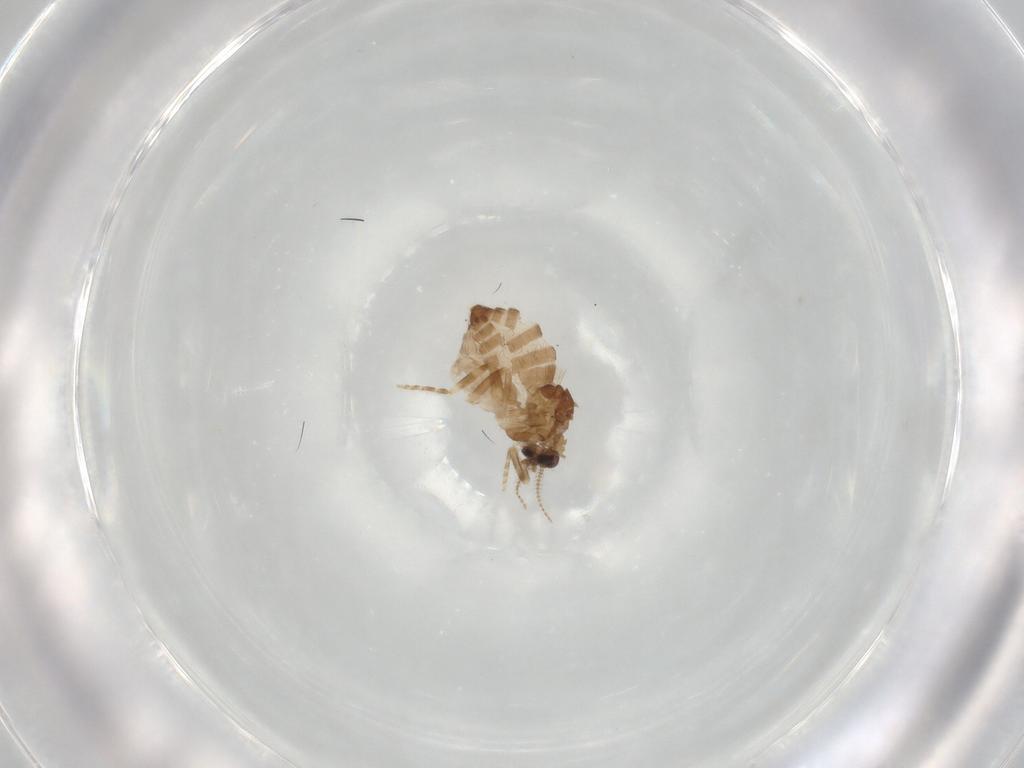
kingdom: Animalia
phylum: Arthropoda
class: Insecta
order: Diptera
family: Ceratopogonidae
